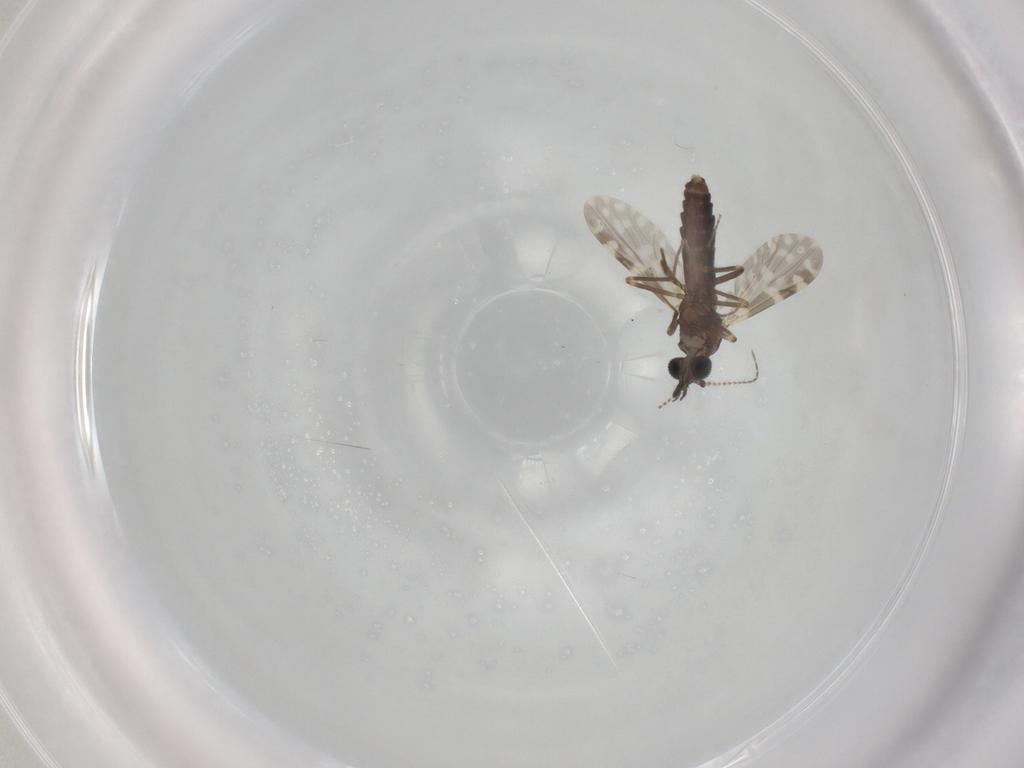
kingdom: Animalia
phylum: Arthropoda
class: Insecta
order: Diptera
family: Ceratopogonidae
